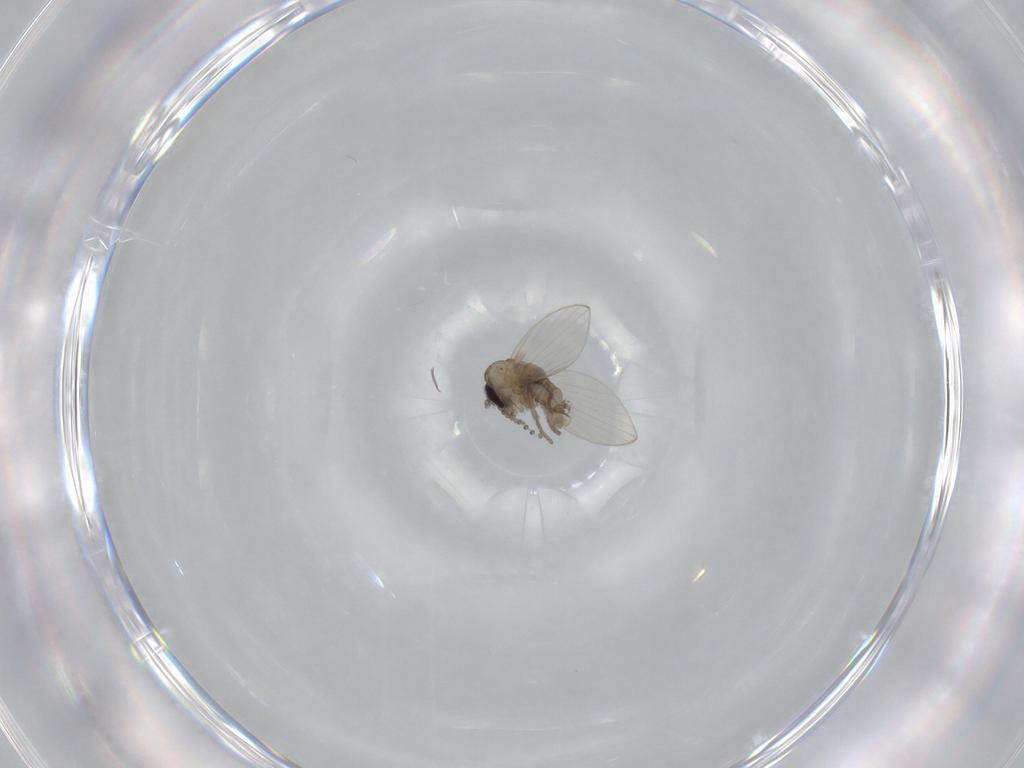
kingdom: Animalia
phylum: Arthropoda
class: Insecta
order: Diptera
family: Psychodidae
